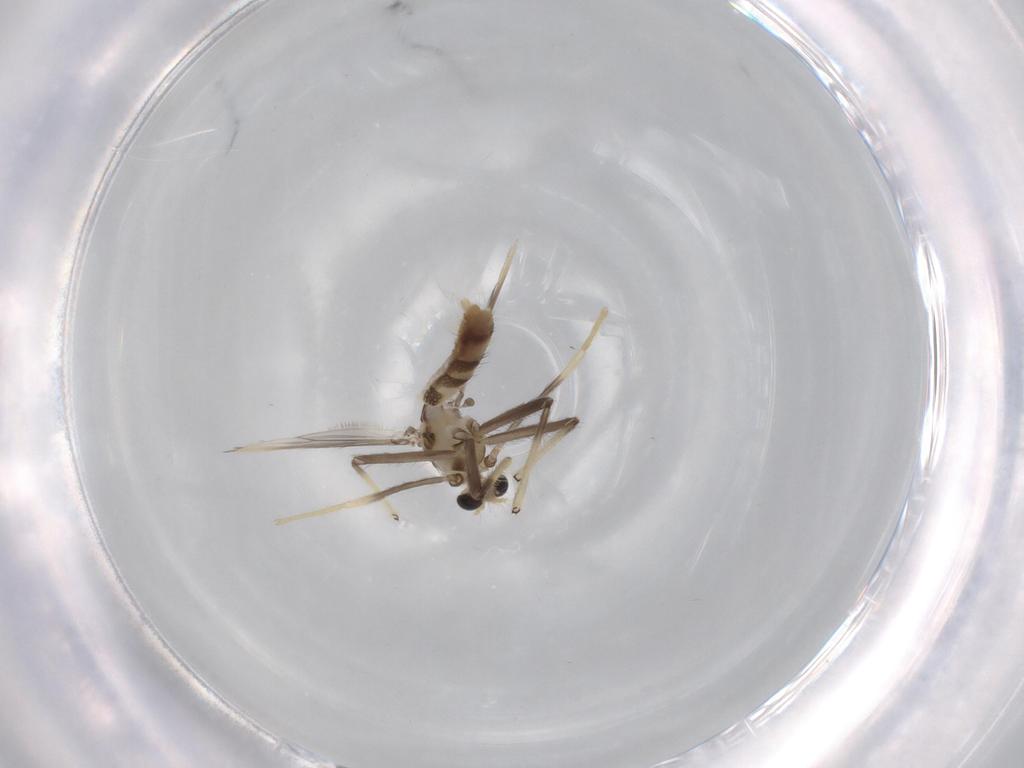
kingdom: Animalia
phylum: Arthropoda
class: Insecta
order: Diptera
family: Chironomidae
